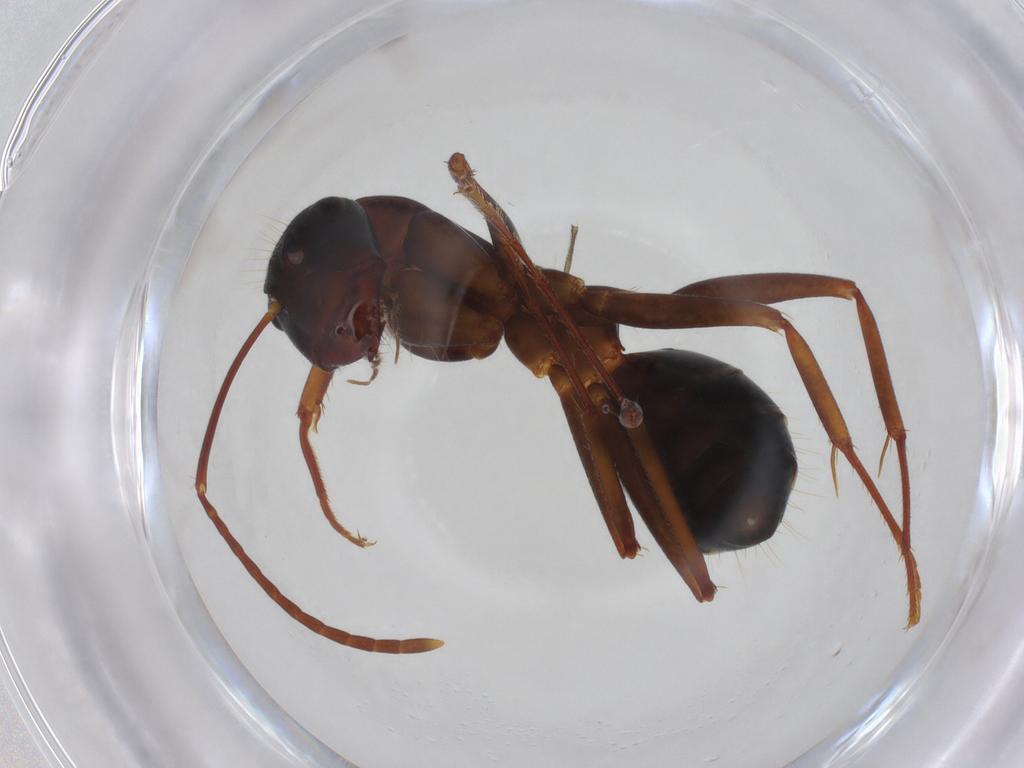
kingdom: Animalia
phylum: Arthropoda
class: Insecta
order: Hymenoptera
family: Formicidae
